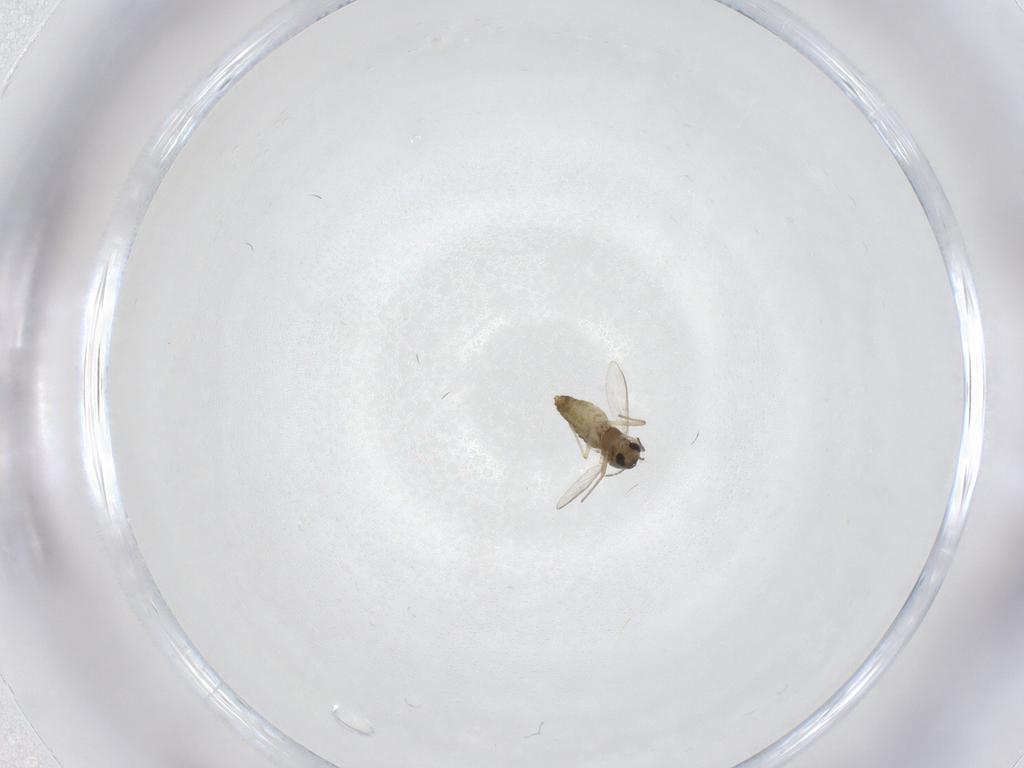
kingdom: Animalia
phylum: Arthropoda
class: Insecta
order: Diptera
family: Chironomidae
